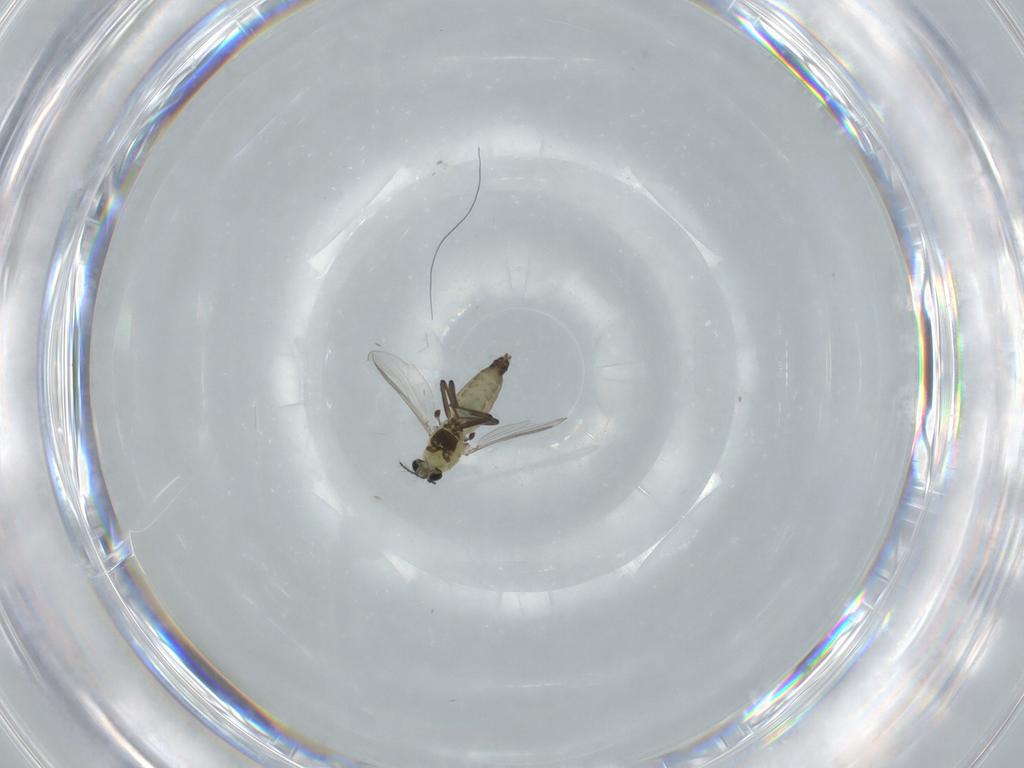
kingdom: Animalia
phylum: Arthropoda
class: Insecta
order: Diptera
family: Chironomidae
